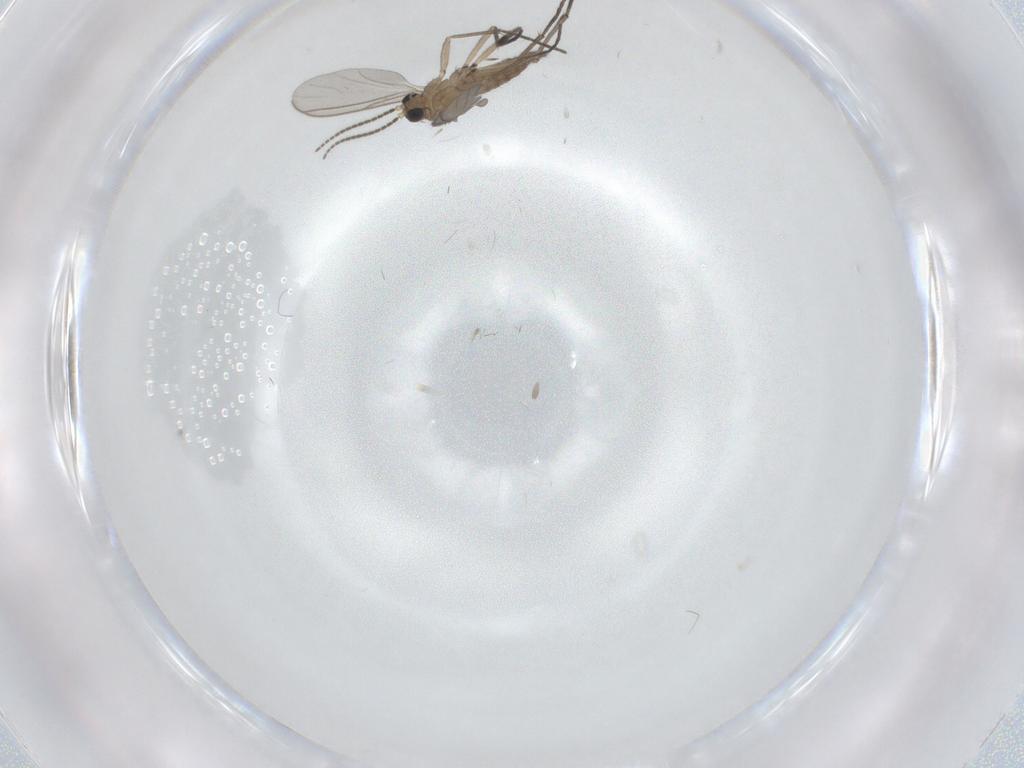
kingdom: Animalia
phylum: Arthropoda
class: Insecta
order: Diptera
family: Sciaridae
